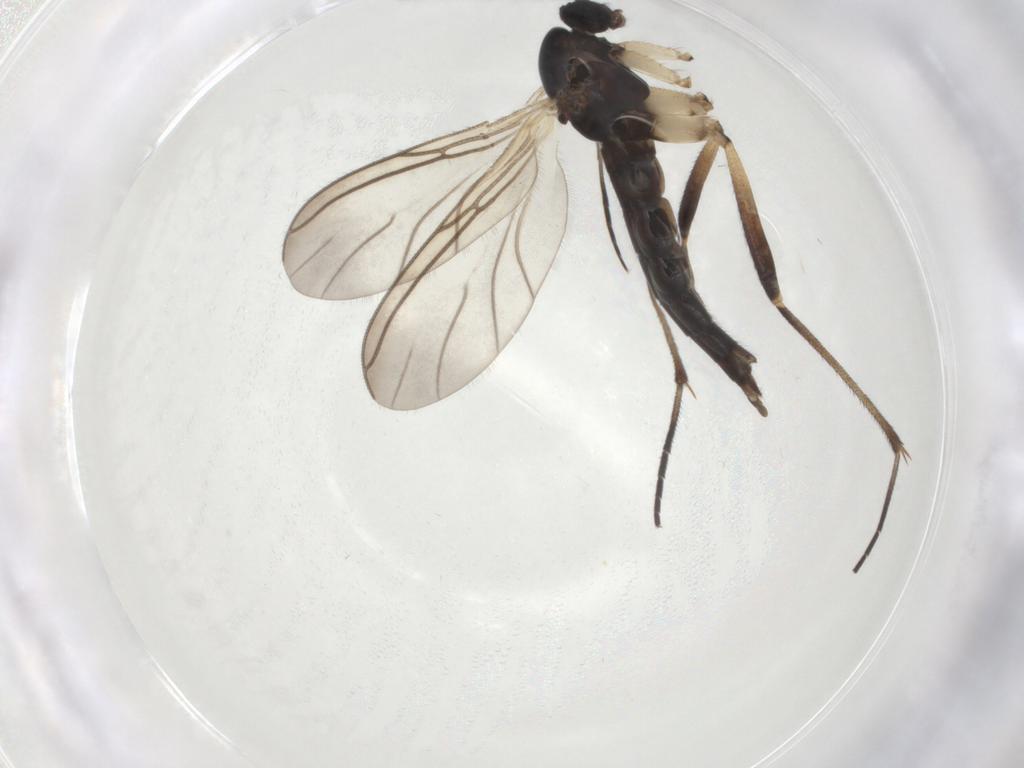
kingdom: Animalia
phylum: Arthropoda
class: Insecta
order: Diptera
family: Sciaridae
